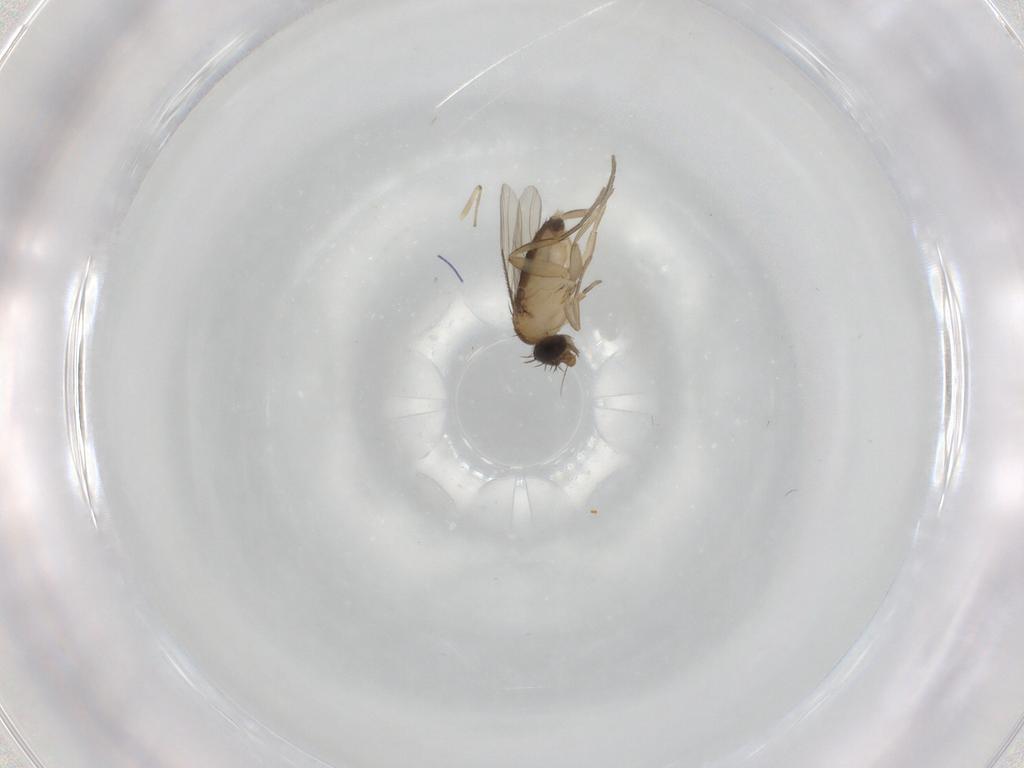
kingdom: Animalia
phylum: Arthropoda
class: Insecta
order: Diptera
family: Phoridae
